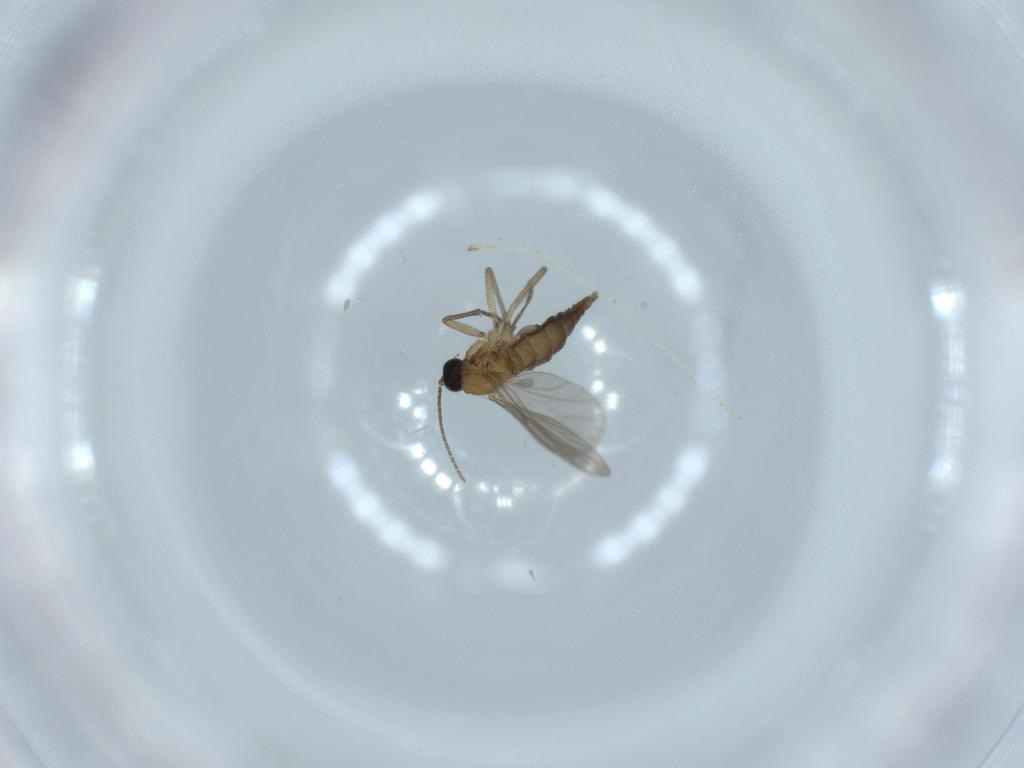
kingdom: Animalia
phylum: Arthropoda
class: Insecta
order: Diptera
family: Sciaridae
